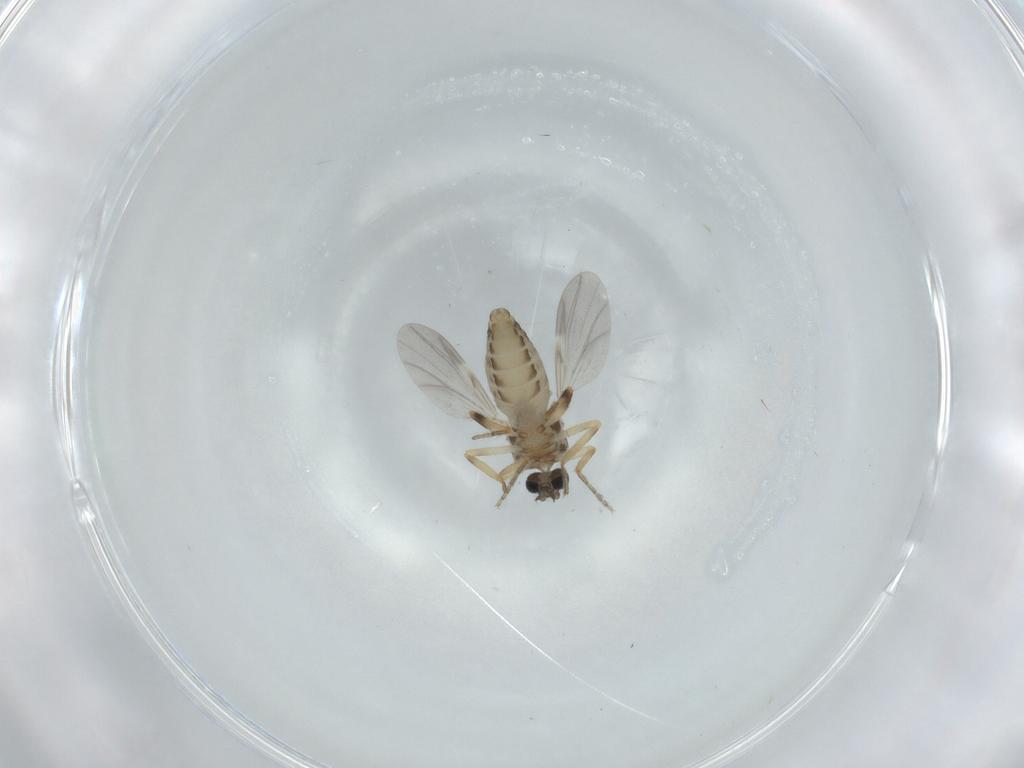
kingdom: Animalia
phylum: Arthropoda
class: Insecta
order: Diptera
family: Ceratopogonidae
